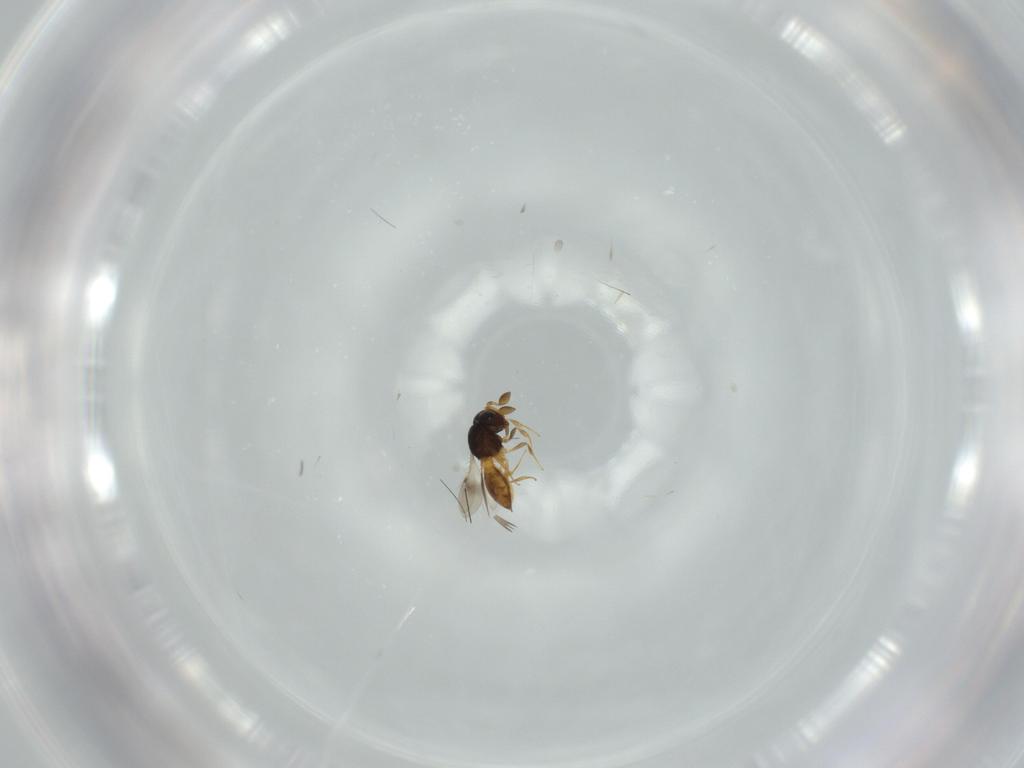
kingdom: Animalia
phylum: Arthropoda
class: Insecta
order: Hymenoptera
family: Scelionidae
